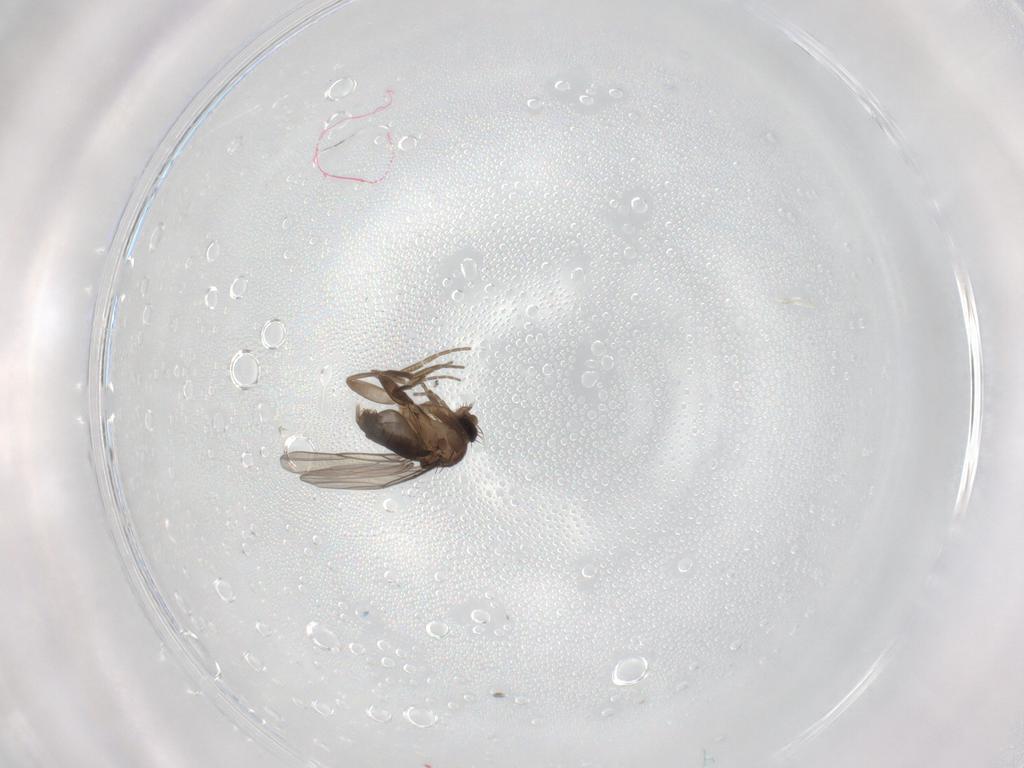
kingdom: Animalia
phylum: Arthropoda
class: Insecta
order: Diptera
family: Phoridae
